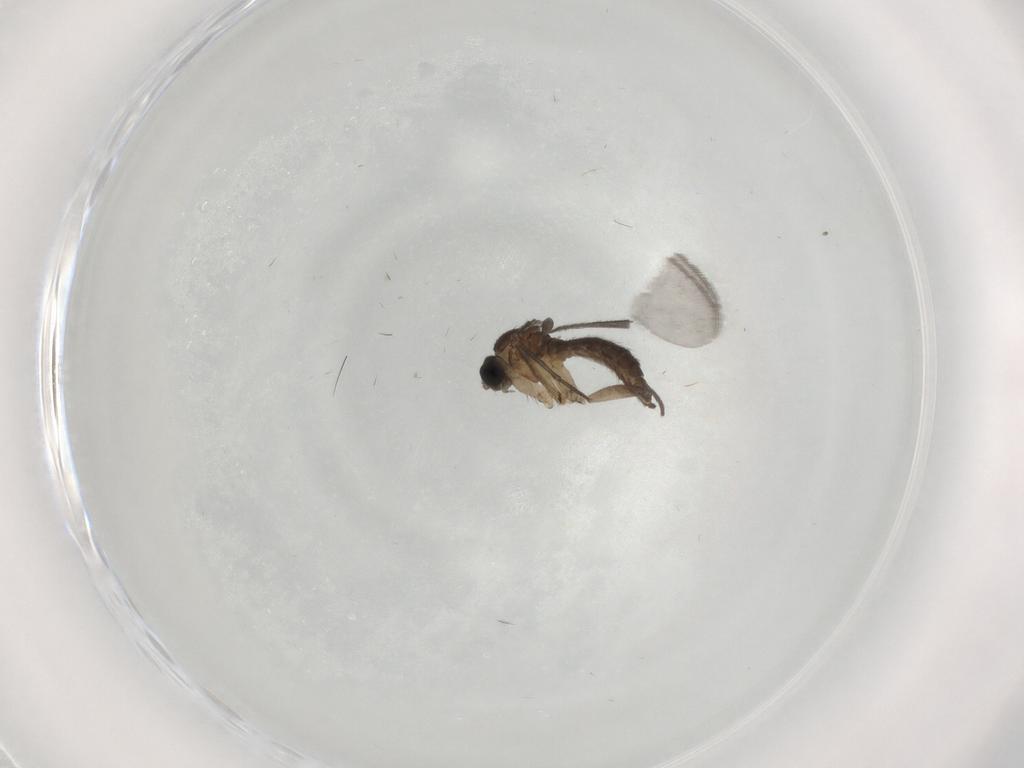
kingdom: Animalia
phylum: Arthropoda
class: Insecta
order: Diptera
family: Sciaridae
